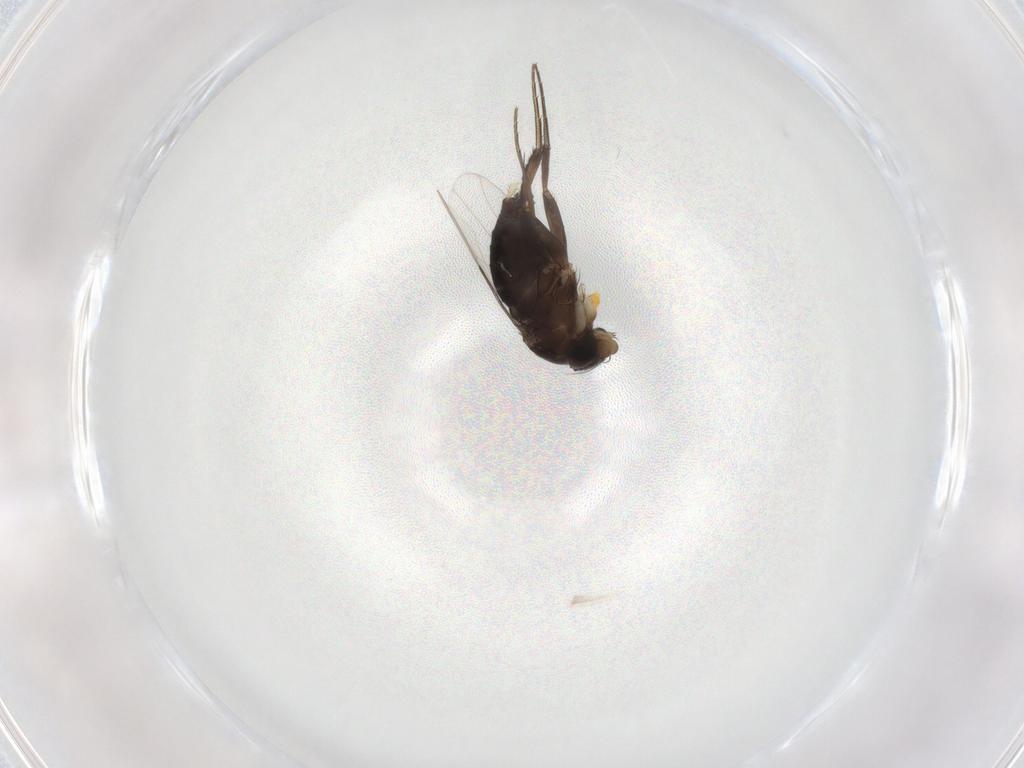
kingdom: Animalia
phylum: Arthropoda
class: Insecta
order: Diptera
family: Phoridae
